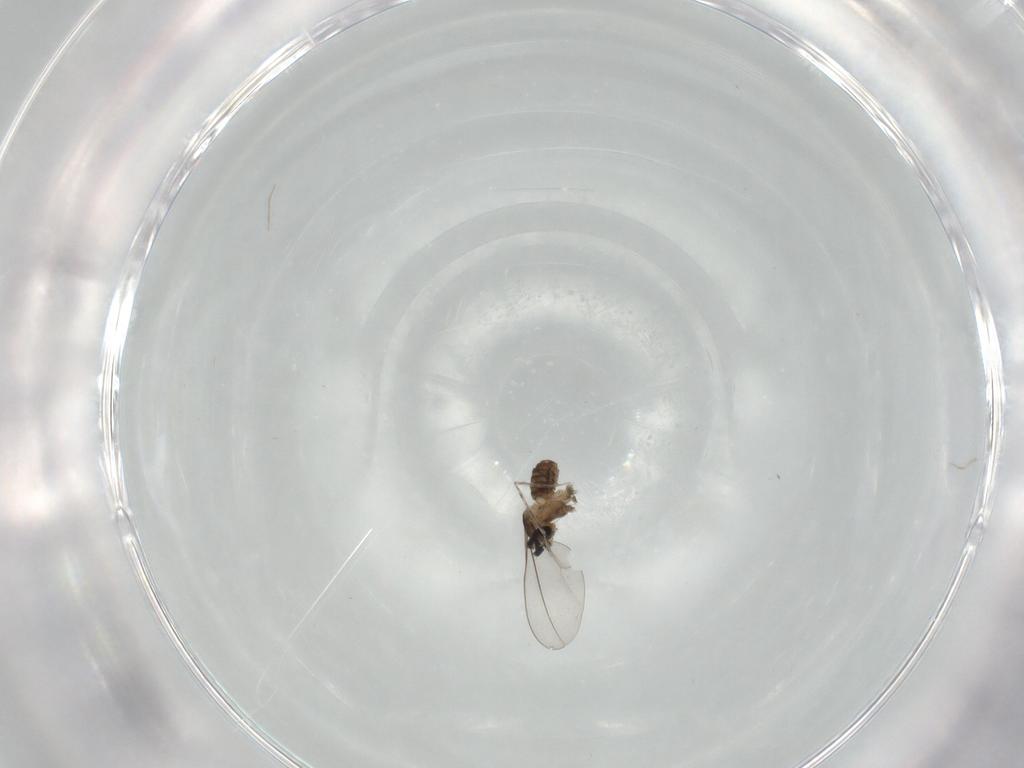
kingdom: Animalia
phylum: Arthropoda
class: Insecta
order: Diptera
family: Cecidomyiidae
